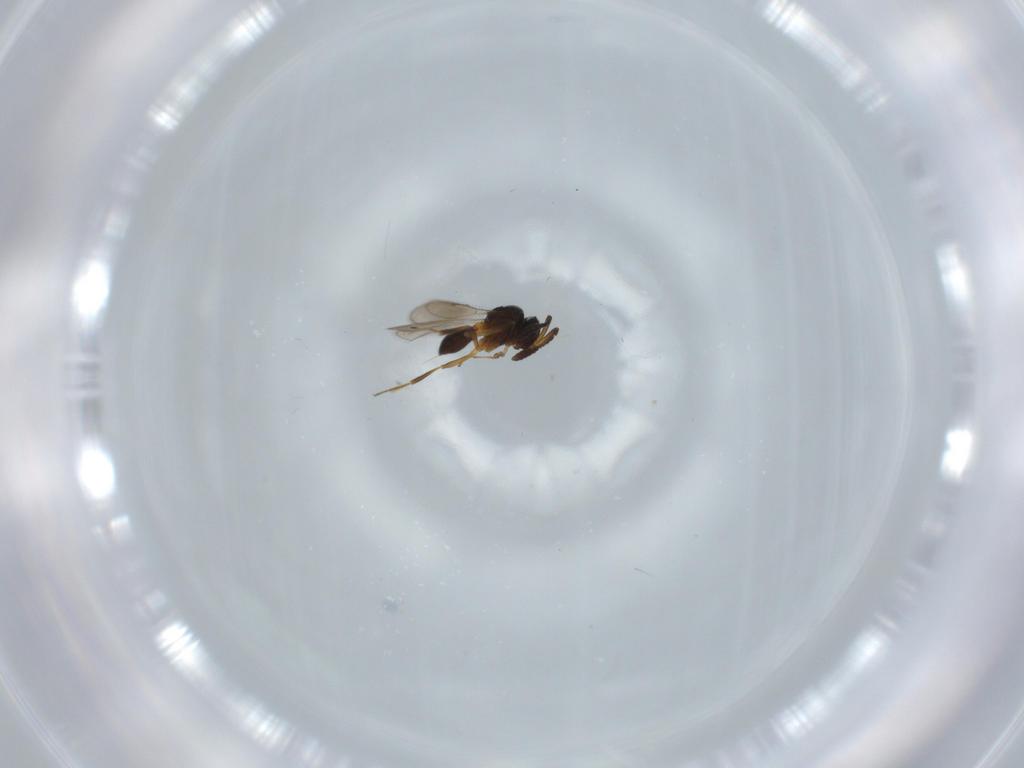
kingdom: Animalia
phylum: Arthropoda
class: Insecta
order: Hymenoptera
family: Scelionidae
